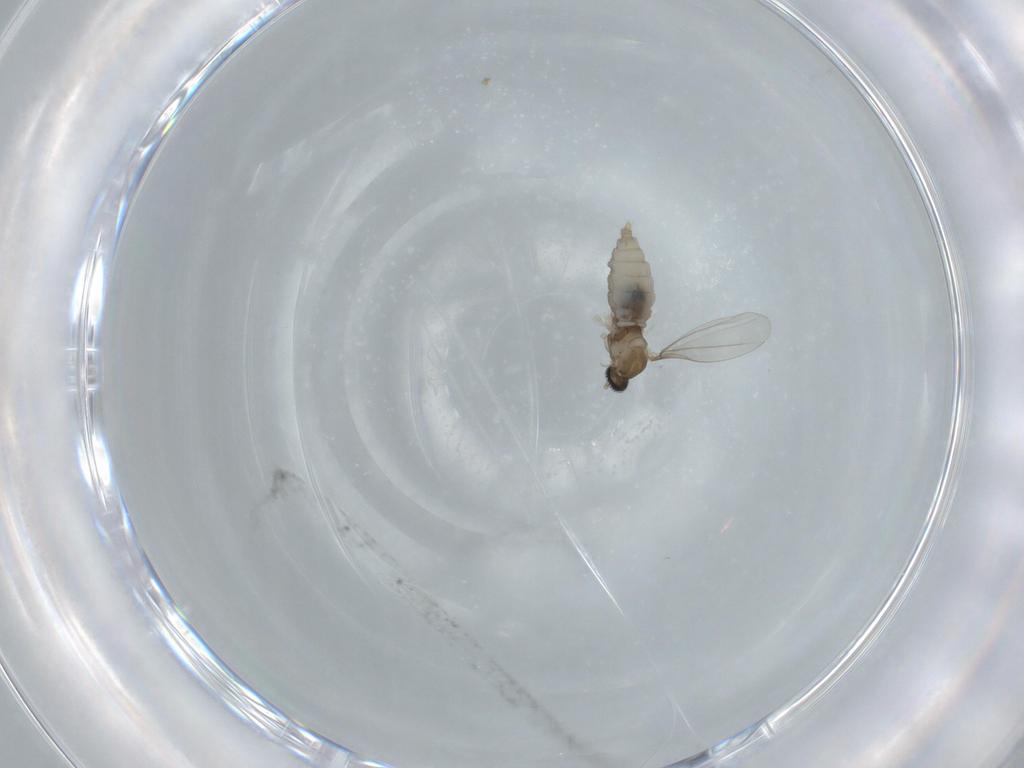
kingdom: Animalia
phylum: Arthropoda
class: Insecta
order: Diptera
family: Cecidomyiidae
